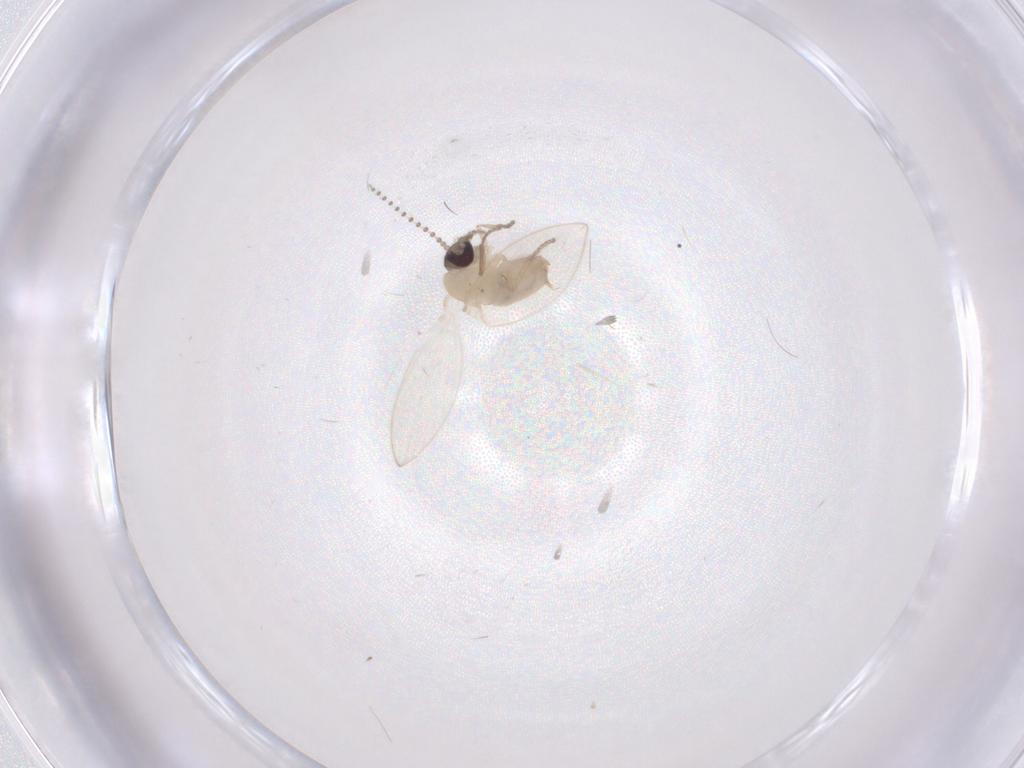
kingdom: Animalia
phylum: Arthropoda
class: Insecta
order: Diptera
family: Psychodidae
